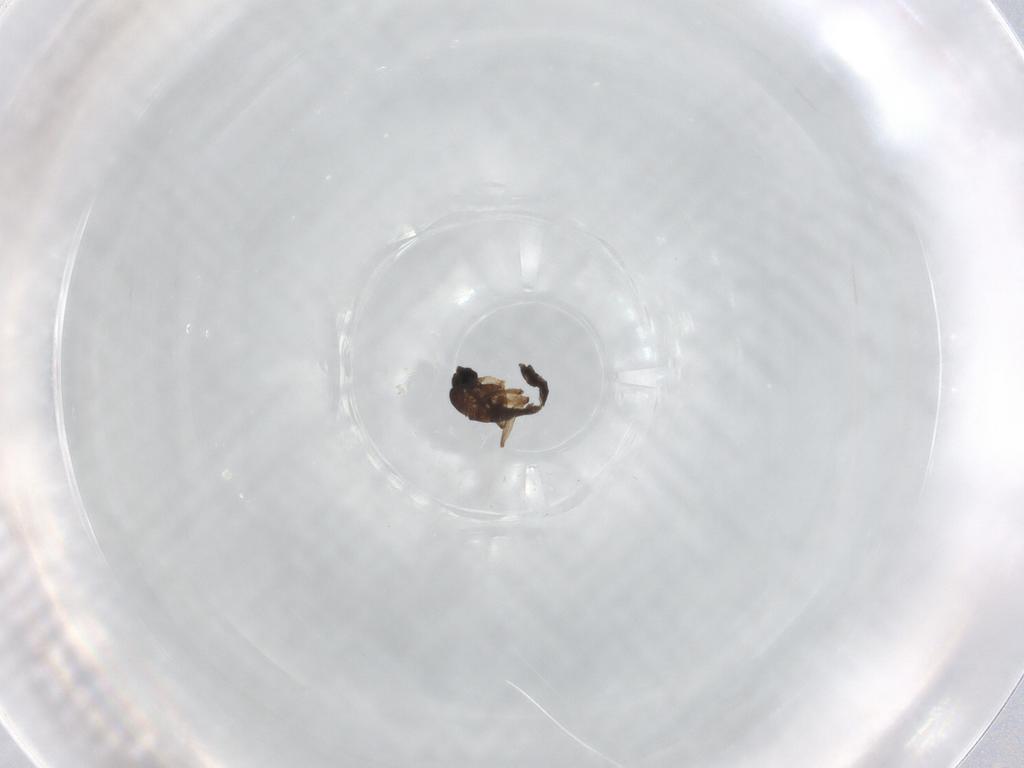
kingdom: Animalia
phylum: Arthropoda
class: Insecta
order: Diptera
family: Sciaridae
